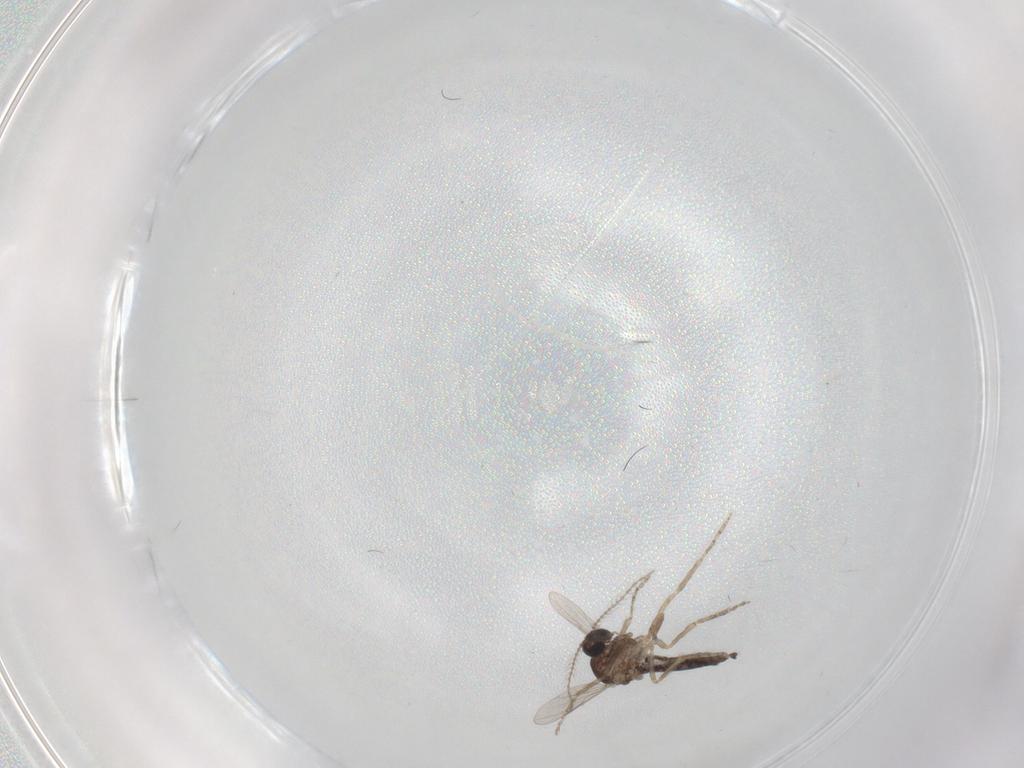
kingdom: Animalia
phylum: Arthropoda
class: Insecta
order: Diptera
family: Ceratopogonidae
